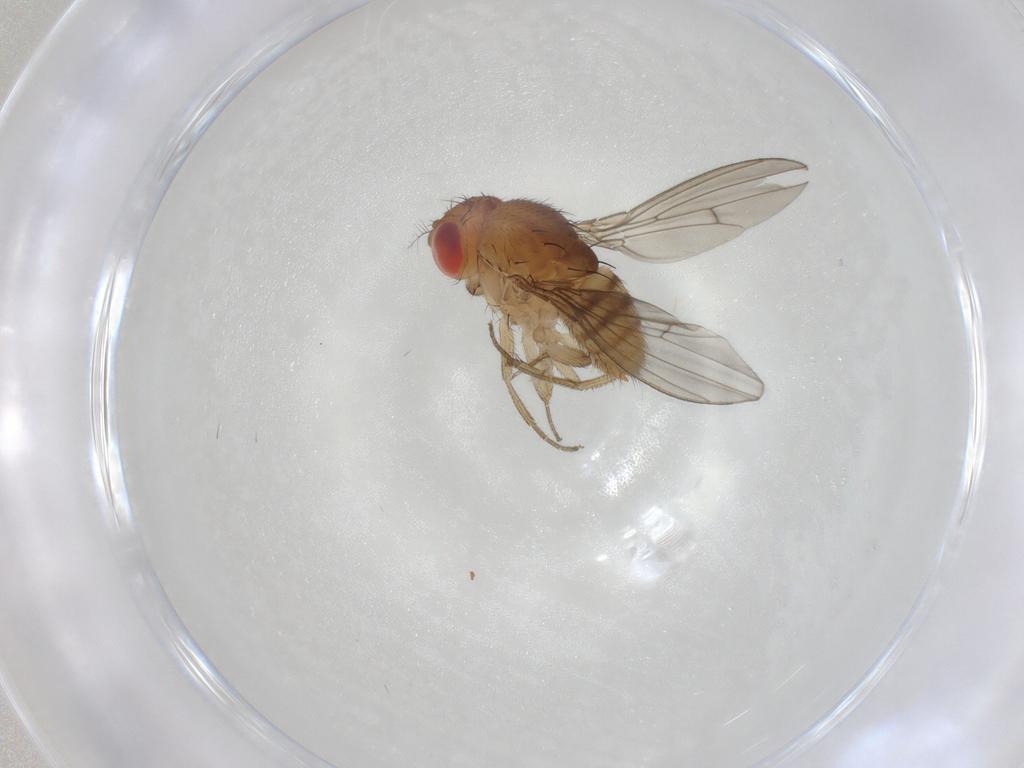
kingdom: Animalia
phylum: Arthropoda
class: Insecta
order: Diptera
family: Drosophilidae
